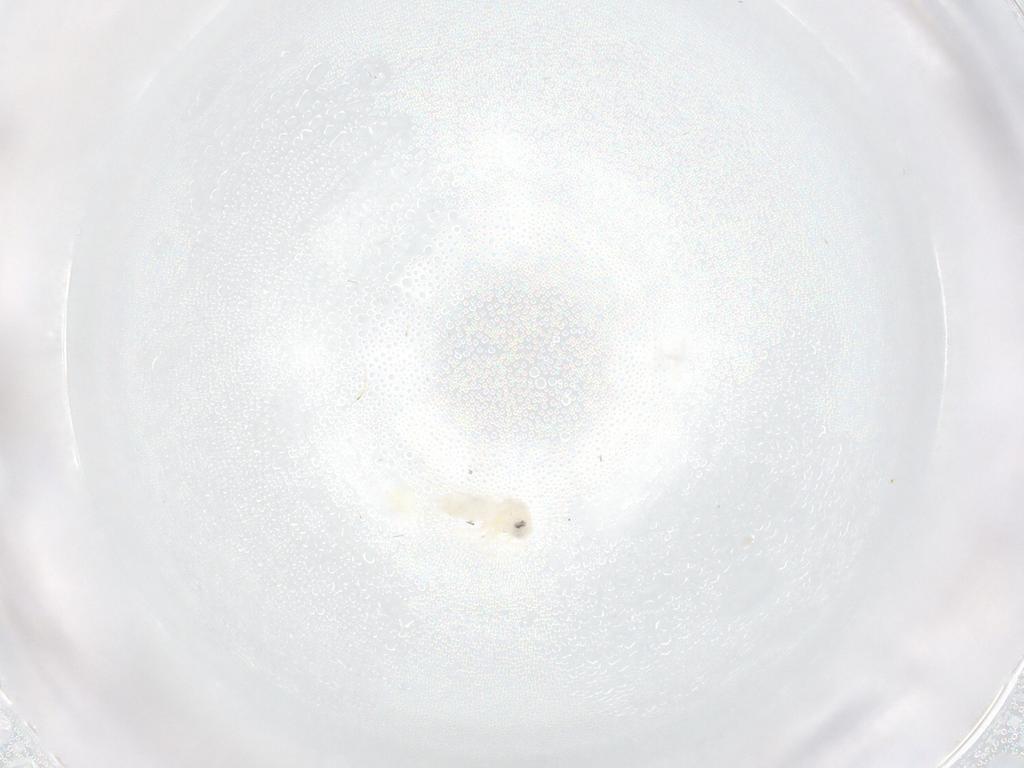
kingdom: Animalia
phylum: Arthropoda
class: Insecta
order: Hemiptera
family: Aleyrodidae
